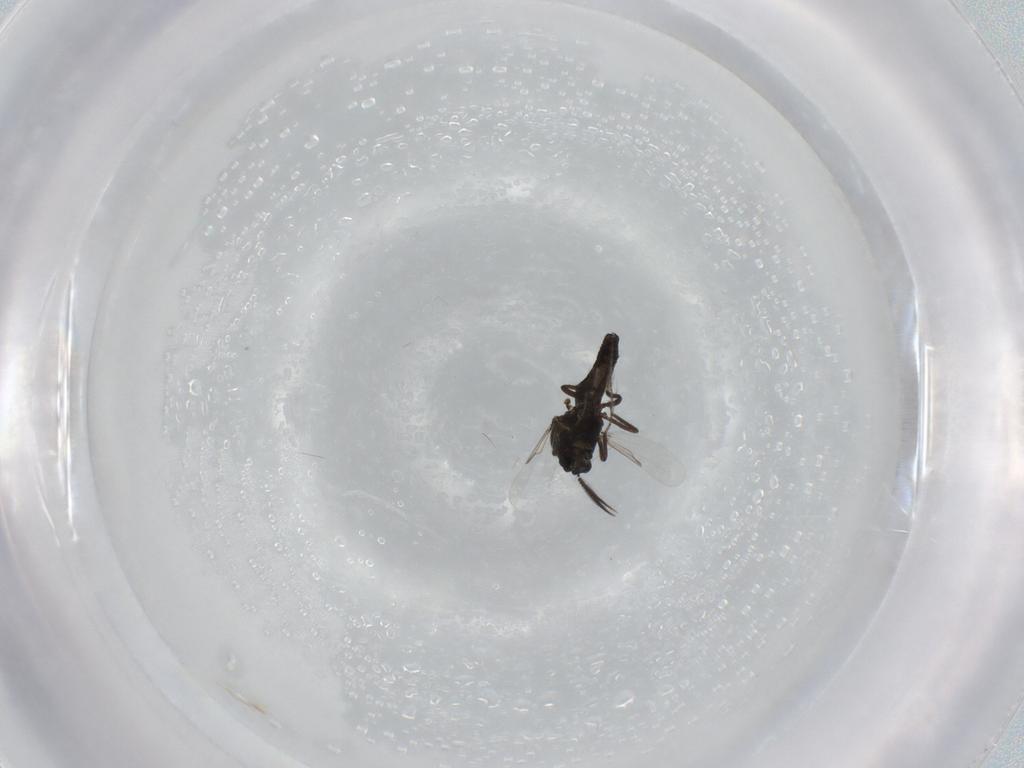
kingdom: Animalia
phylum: Arthropoda
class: Insecta
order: Diptera
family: Ceratopogonidae
